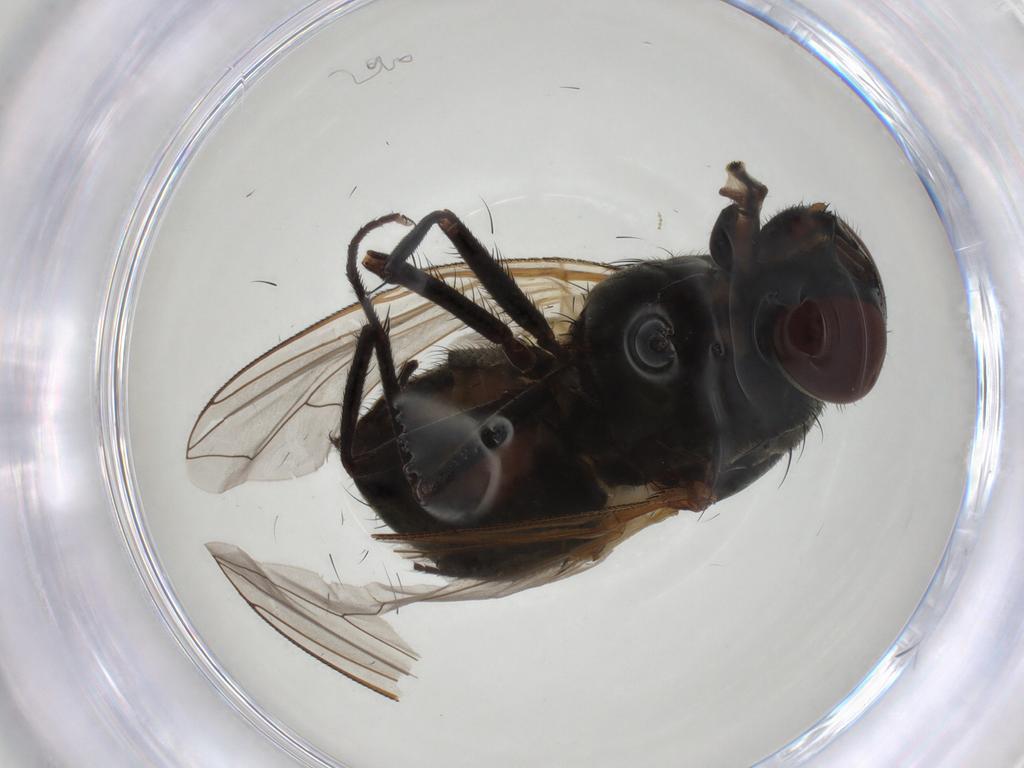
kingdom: Animalia
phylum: Arthropoda
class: Insecta
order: Diptera
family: Muscidae
